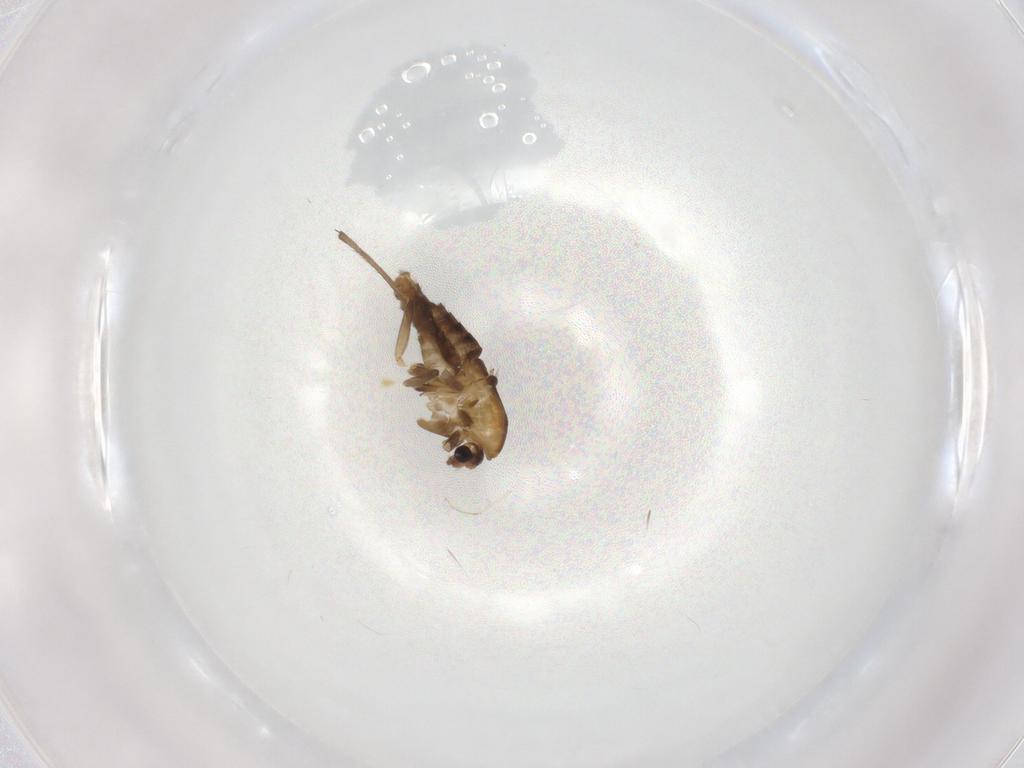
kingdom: Animalia
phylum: Arthropoda
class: Insecta
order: Diptera
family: Chironomidae
